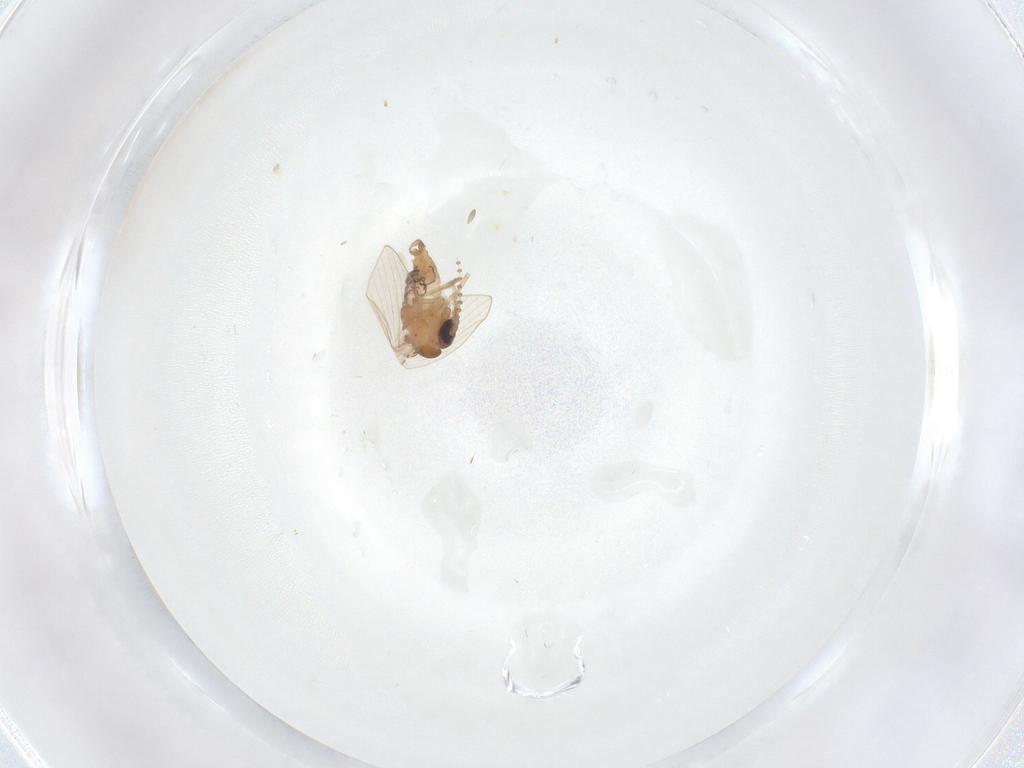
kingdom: Animalia
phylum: Arthropoda
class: Insecta
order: Diptera
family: Psychodidae
